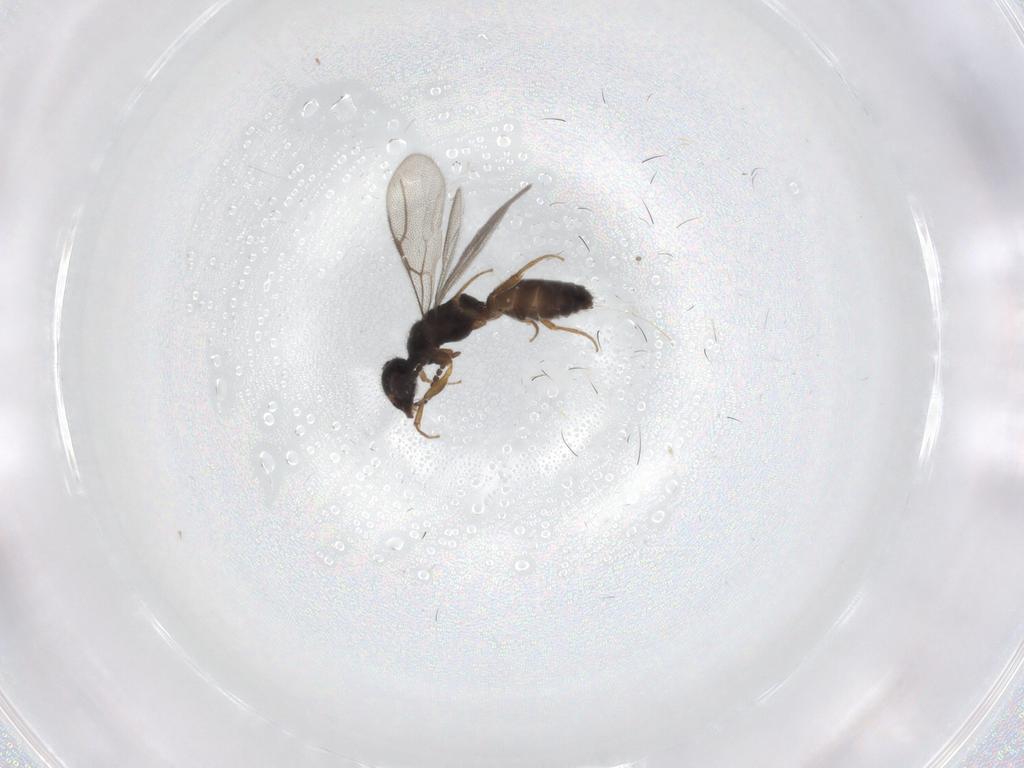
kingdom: Animalia
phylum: Arthropoda
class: Insecta
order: Hymenoptera
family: Bethylidae
